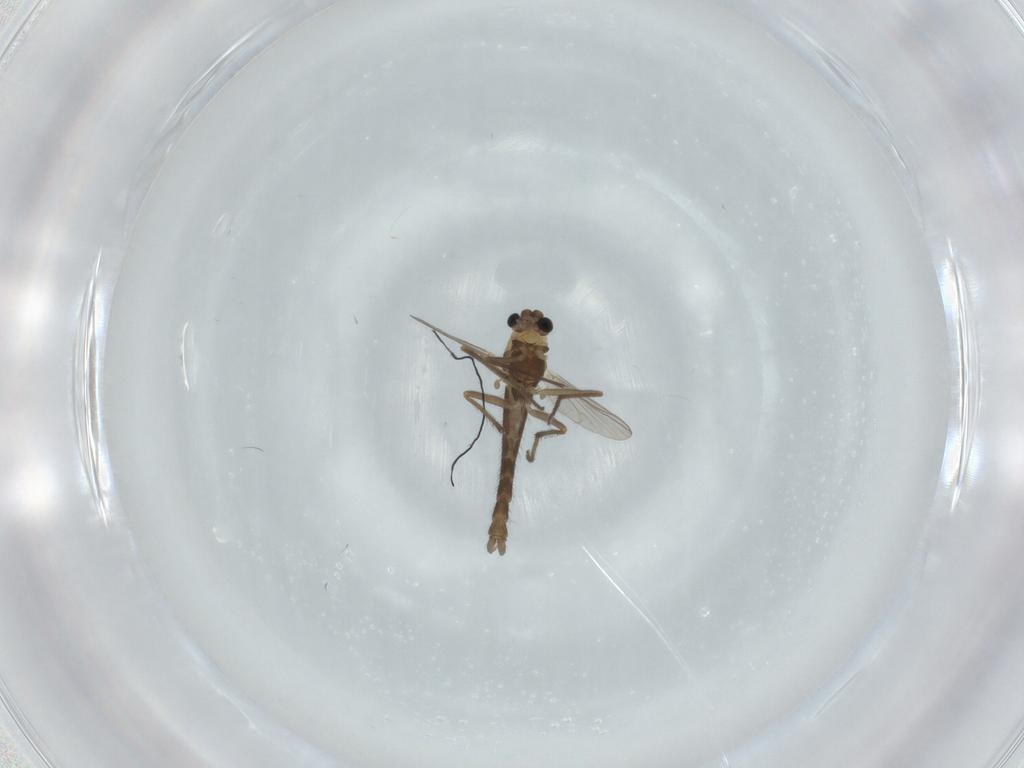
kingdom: Animalia
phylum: Arthropoda
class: Insecta
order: Diptera
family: Chironomidae
